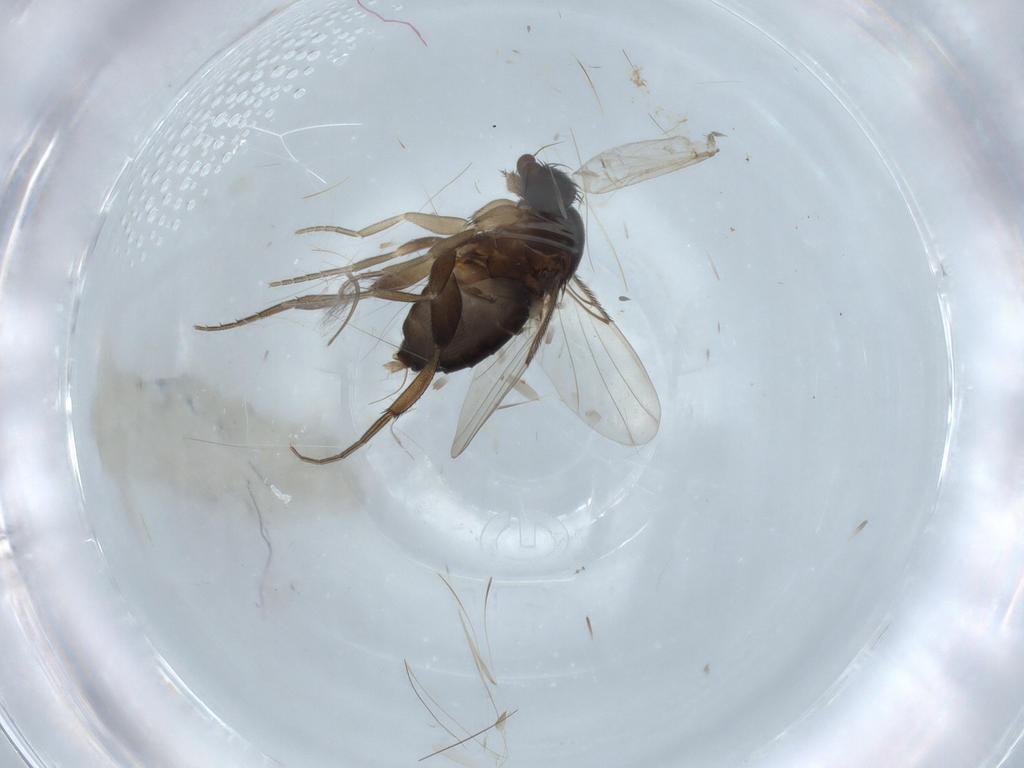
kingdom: Animalia
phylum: Arthropoda
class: Insecta
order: Diptera
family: Phoridae
